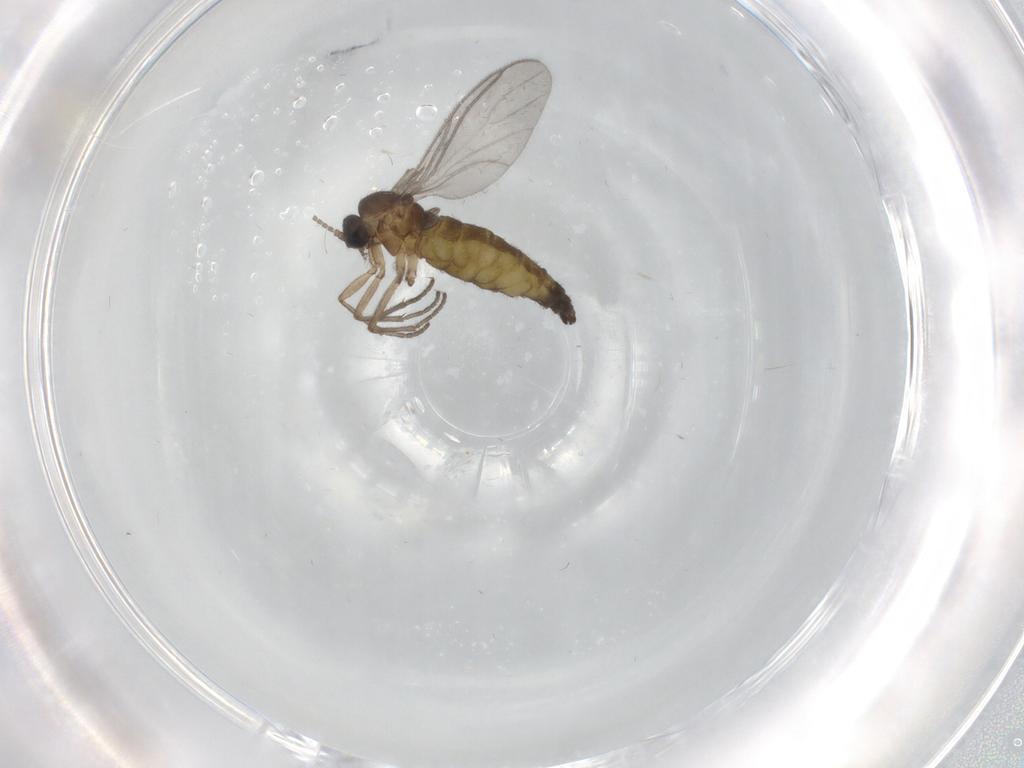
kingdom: Animalia
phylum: Arthropoda
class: Insecta
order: Diptera
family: Sciaridae
